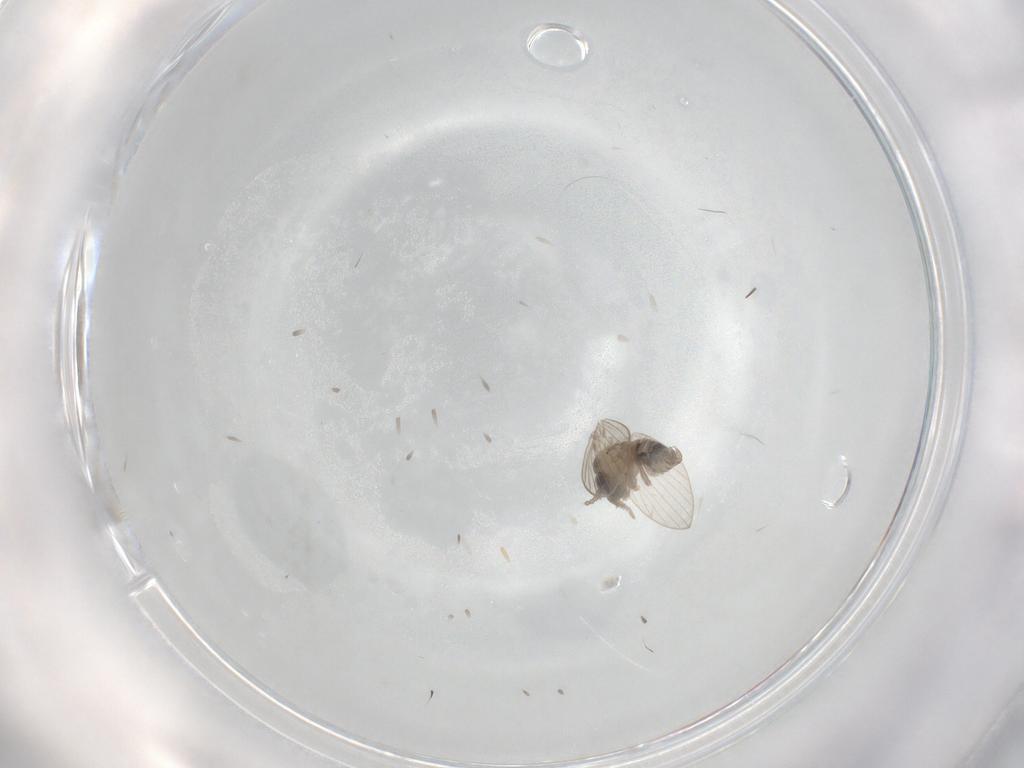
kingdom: Animalia
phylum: Arthropoda
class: Insecta
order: Diptera
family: Psychodidae
